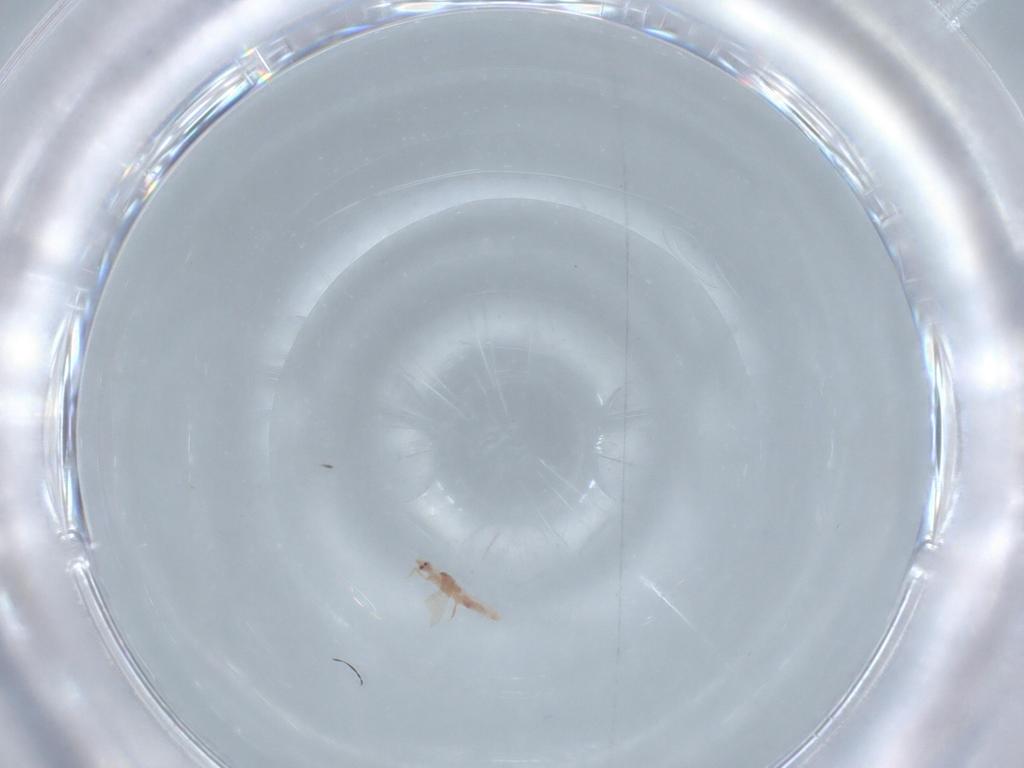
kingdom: Animalia
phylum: Arthropoda
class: Insecta
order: Diptera
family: Sciaridae
